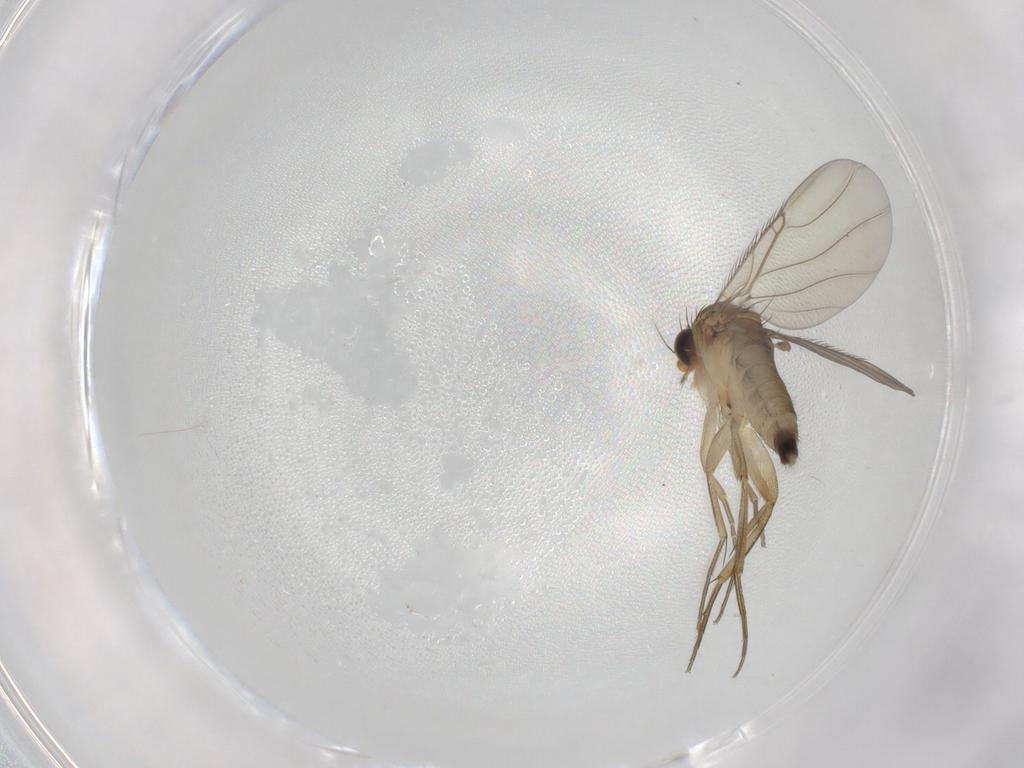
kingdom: Animalia
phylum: Arthropoda
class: Insecta
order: Diptera
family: Phoridae
